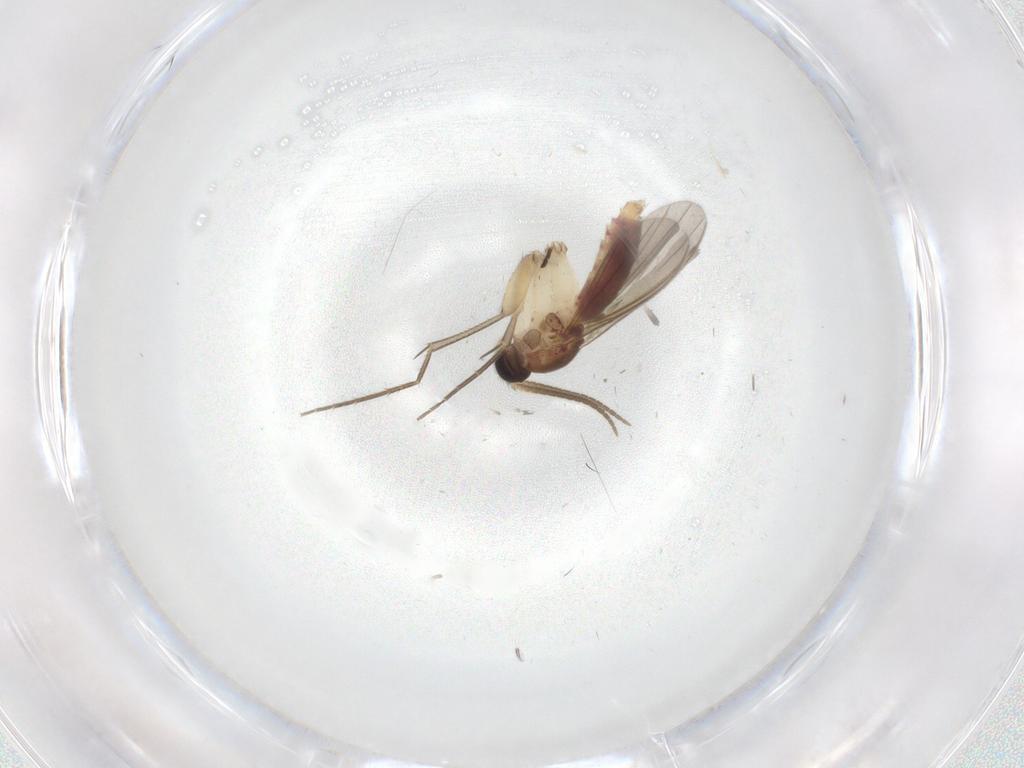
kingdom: Animalia
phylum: Arthropoda
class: Insecta
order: Diptera
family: Mycetophilidae
